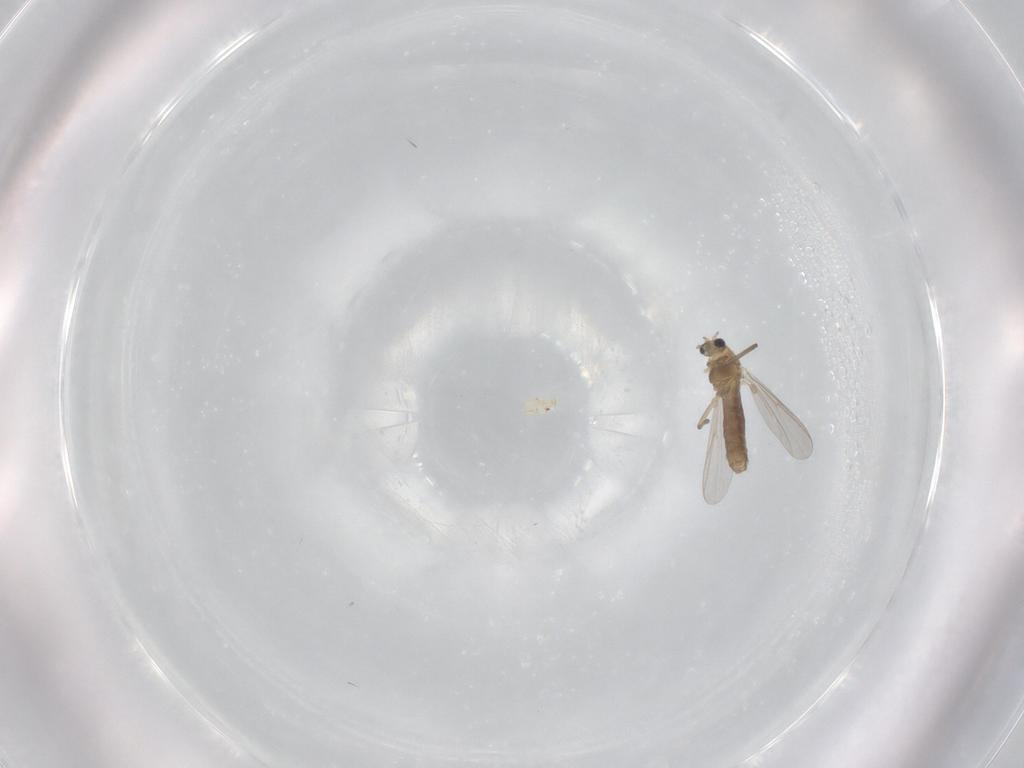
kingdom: Animalia
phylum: Arthropoda
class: Insecta
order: Diptera
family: Chironomidae
